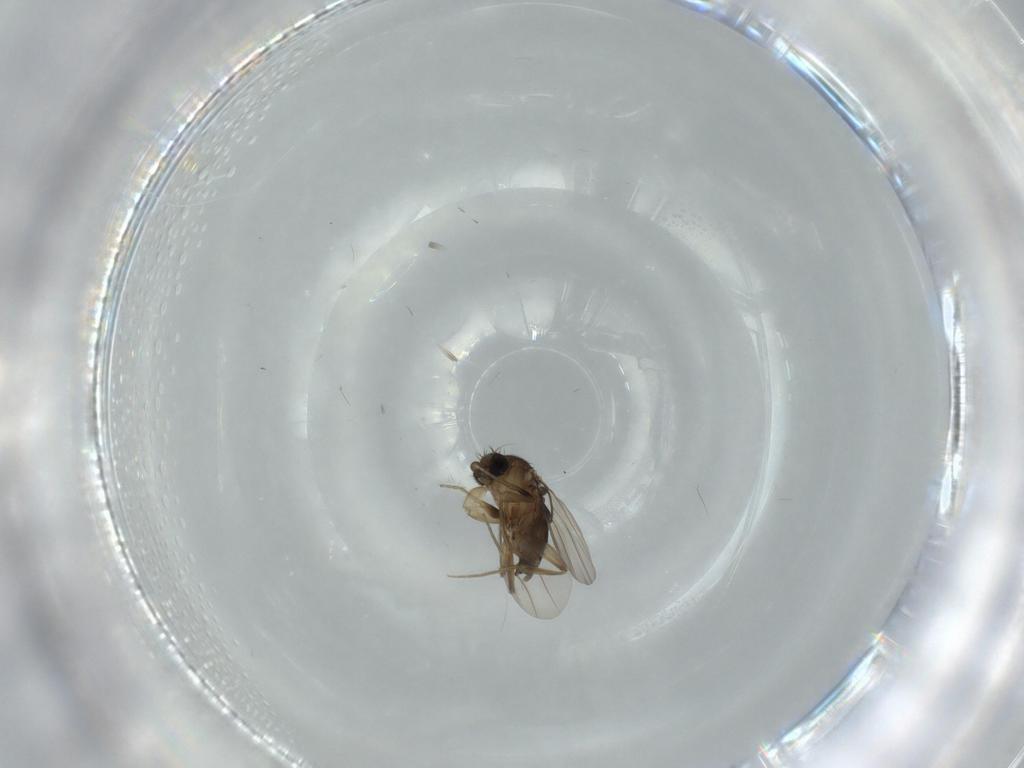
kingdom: Animalia
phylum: Arthropoda
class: Insecta
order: Diptera
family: Phoridae
